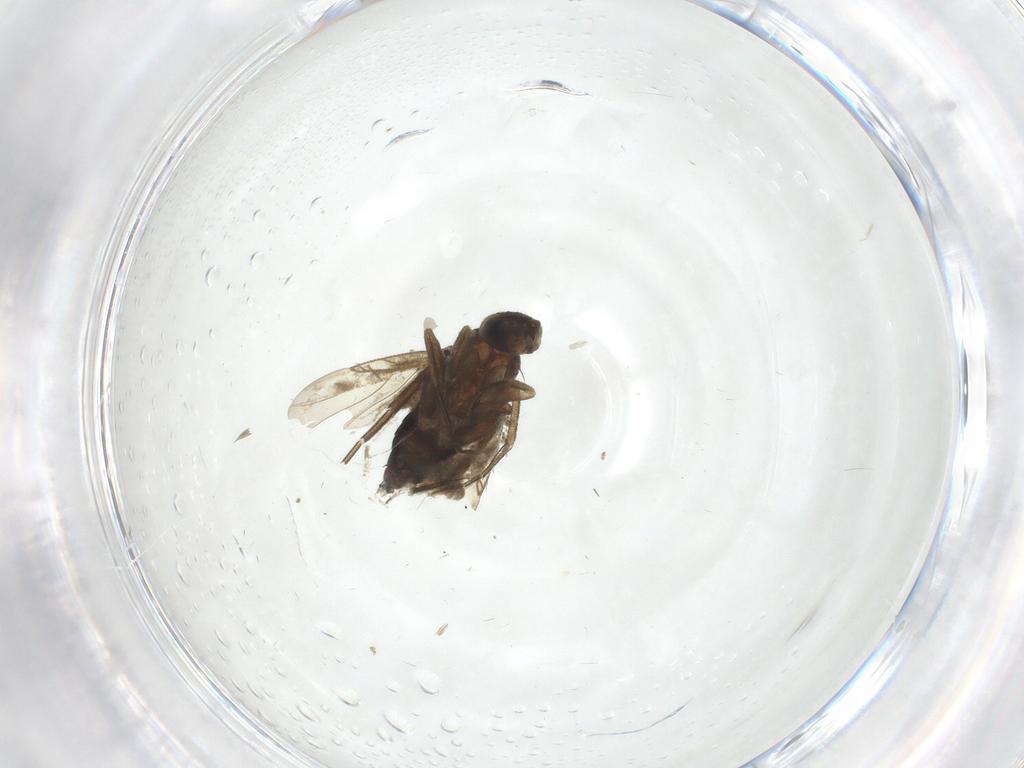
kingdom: Animalia
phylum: Arthropoda
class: Insecta
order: Diptera
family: Phoridae
